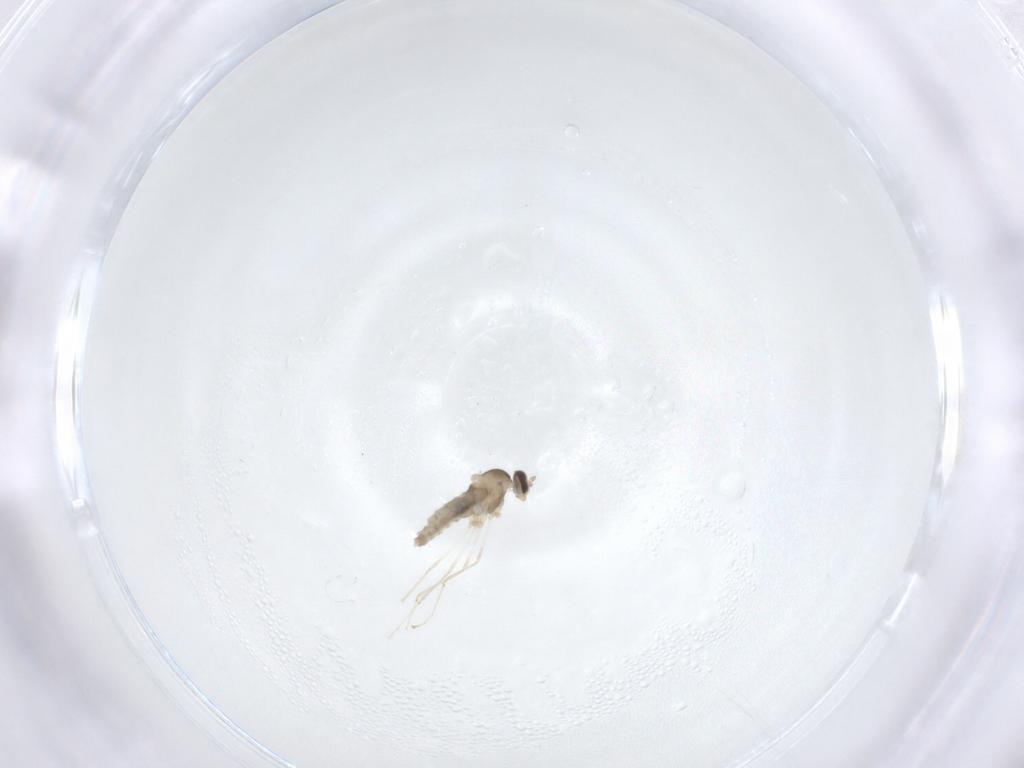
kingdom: Animalia
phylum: Arthropoda
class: Insecta
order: Diptera
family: Cecidomyiidae
